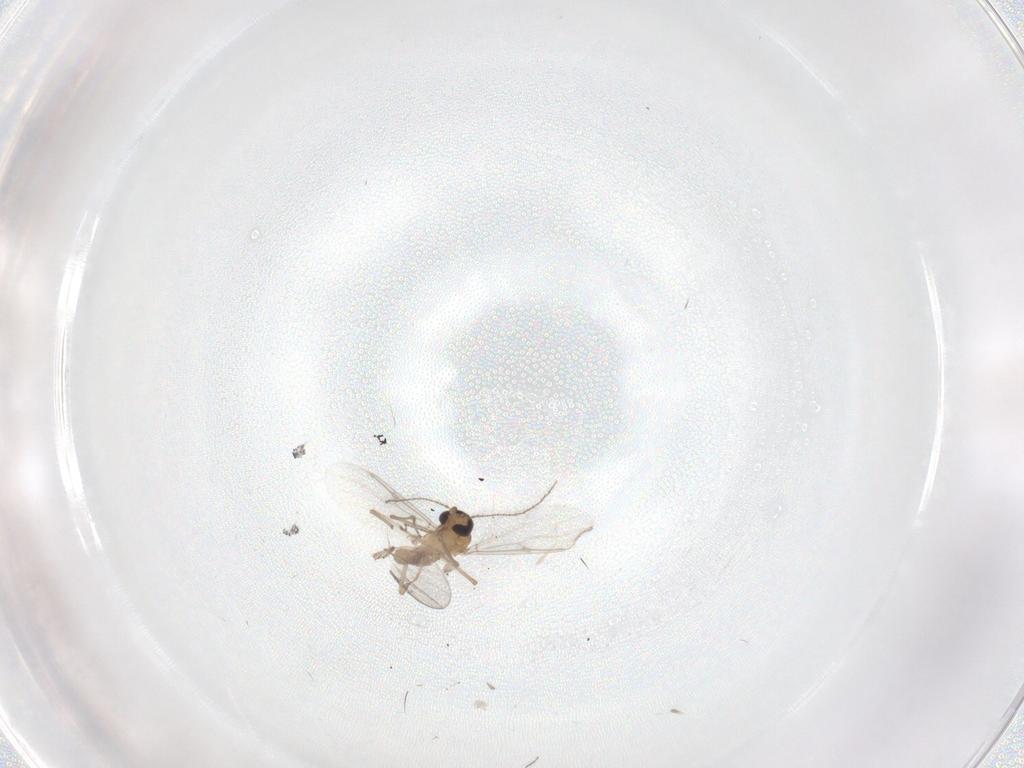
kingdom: Animalia
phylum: Arthropoda
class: Insecta
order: Diptera
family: Ceratopogonidae
